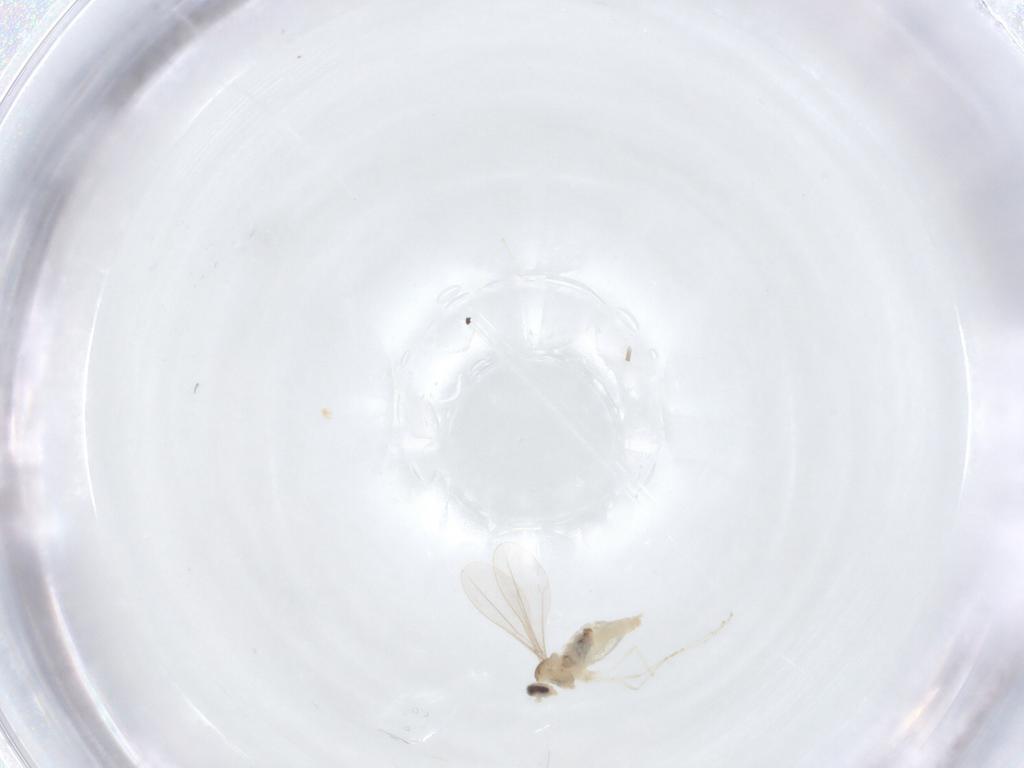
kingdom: Animalia
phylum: Arthropoda
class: Insecta
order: Diptera
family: Cecidomyiidae
